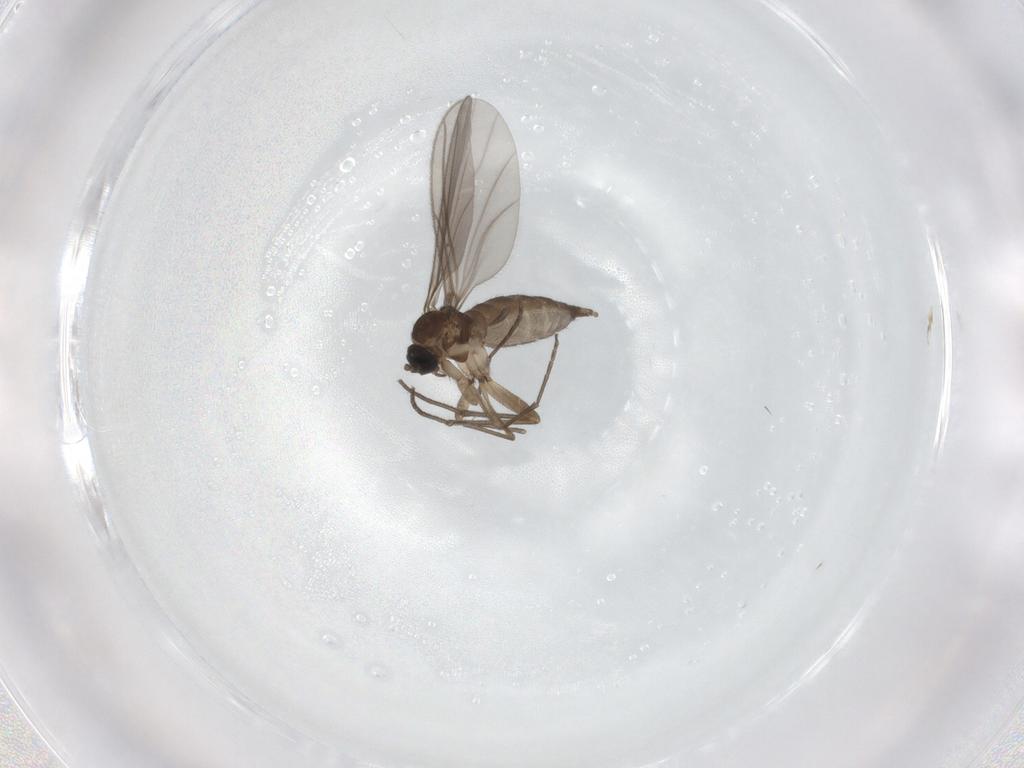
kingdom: Animalia
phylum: Arthropoda
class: Insecta
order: Diptera
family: Sciaridae
